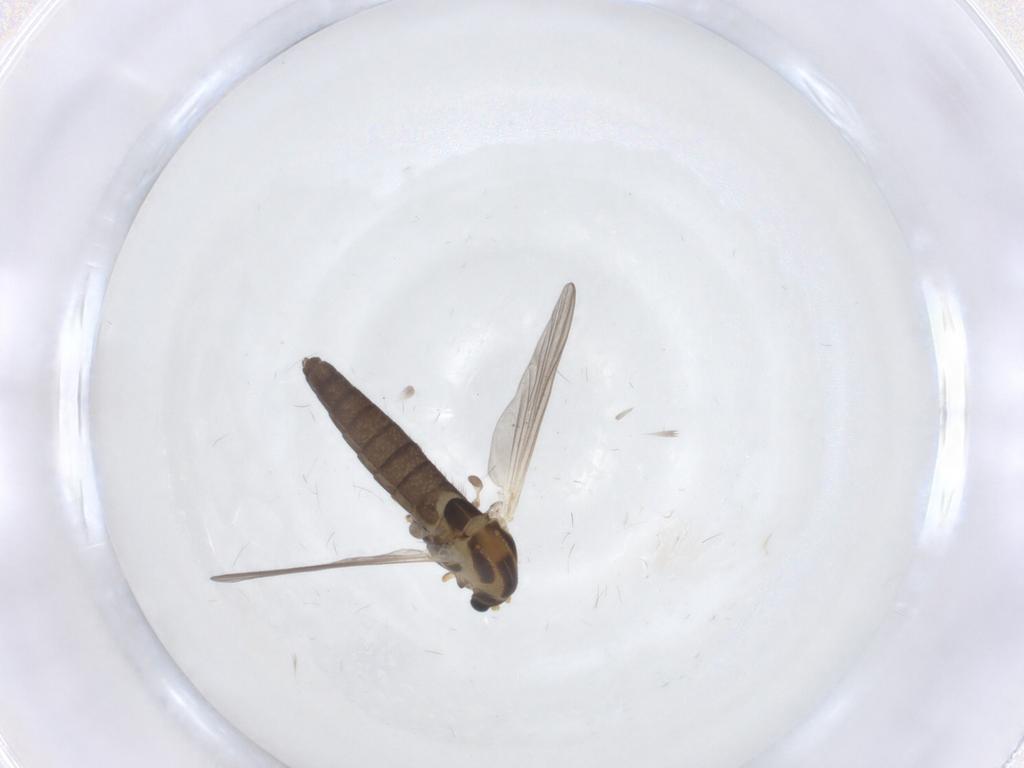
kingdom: Animalia
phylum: Arthropoda
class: Insecta
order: Diptera
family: Chironomidae
